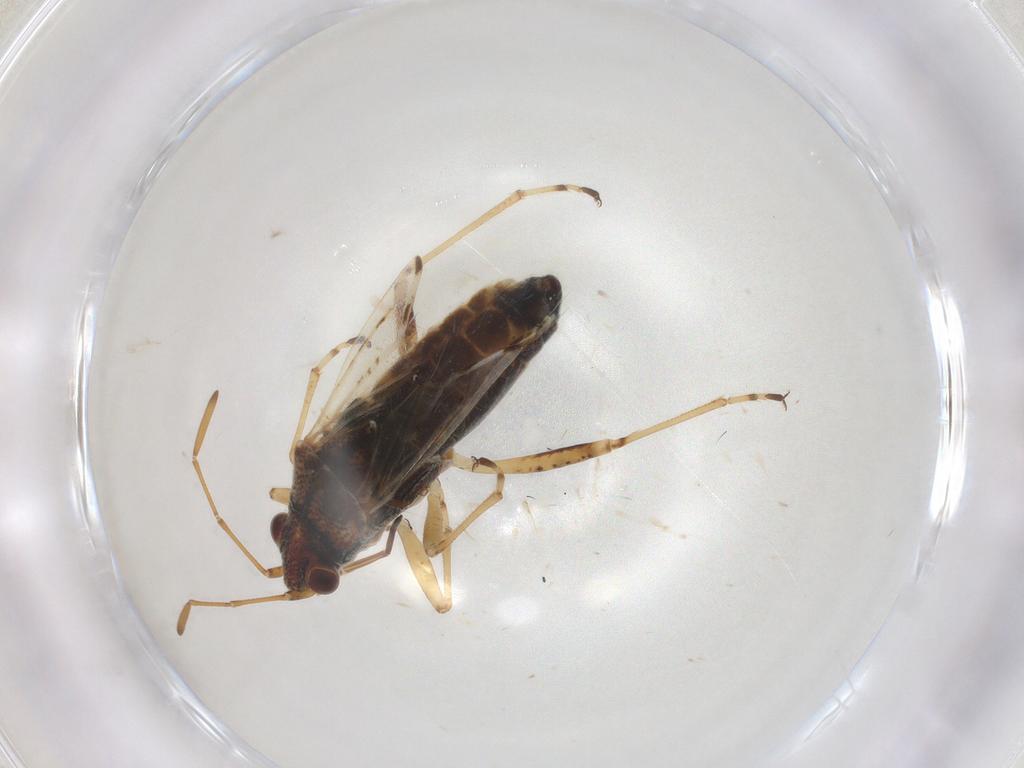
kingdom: Animalia
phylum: Arthropoda
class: Insecta
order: Hemiptera
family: Lygaeidae
